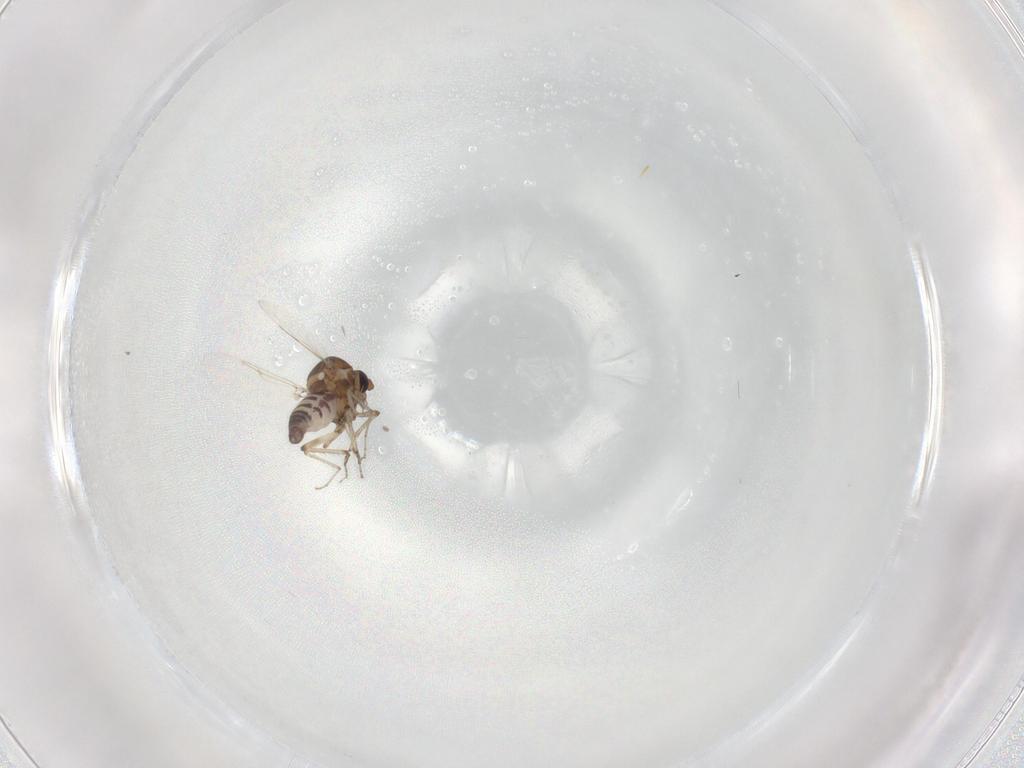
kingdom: Animalia
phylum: Arthropoda
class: Insecta
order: Diptera
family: Ceratopogonidae
